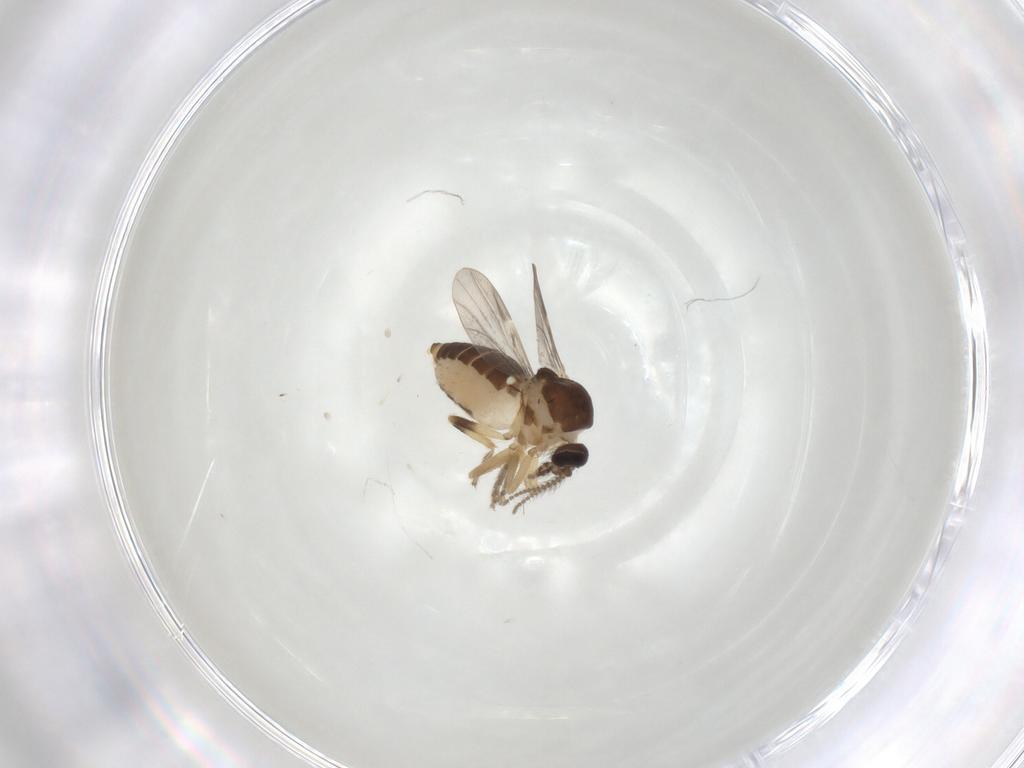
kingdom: Animalia
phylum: Arthropoda
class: Insecta
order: Diptera
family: Ceratopogonidae
